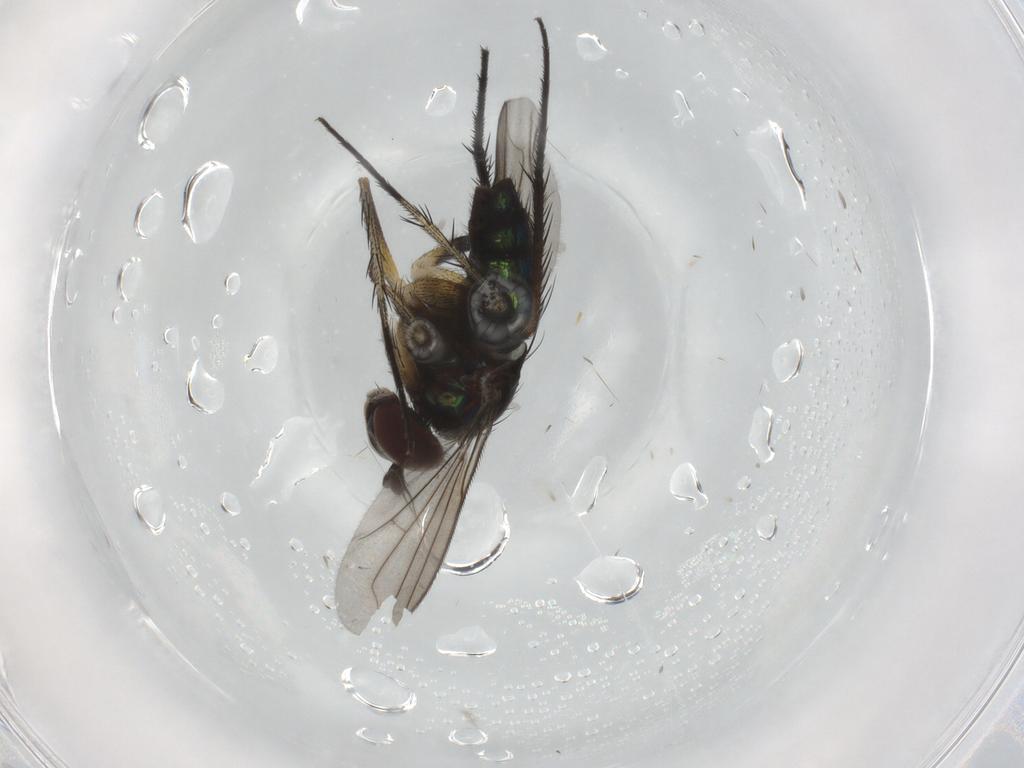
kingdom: Animalia
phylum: Arthropoda
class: Insecta
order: Diptera
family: Dolichopodidae
